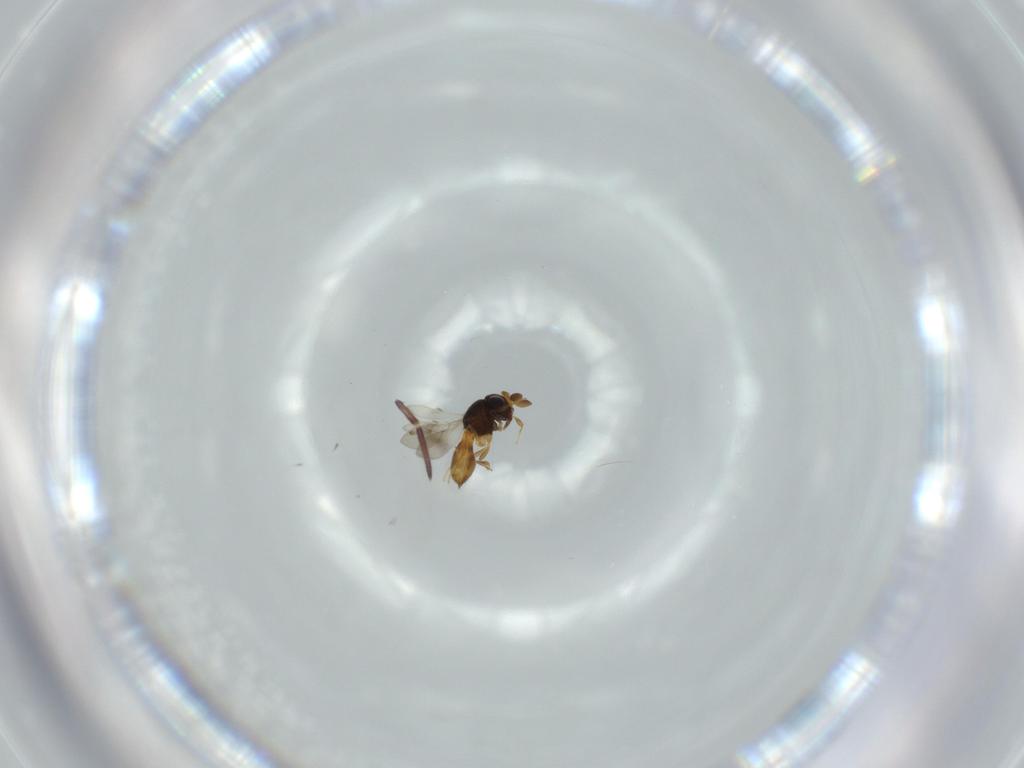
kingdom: Animalia
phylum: Arthropoda
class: Insecta
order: Hymenoptera
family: Scelionidae
